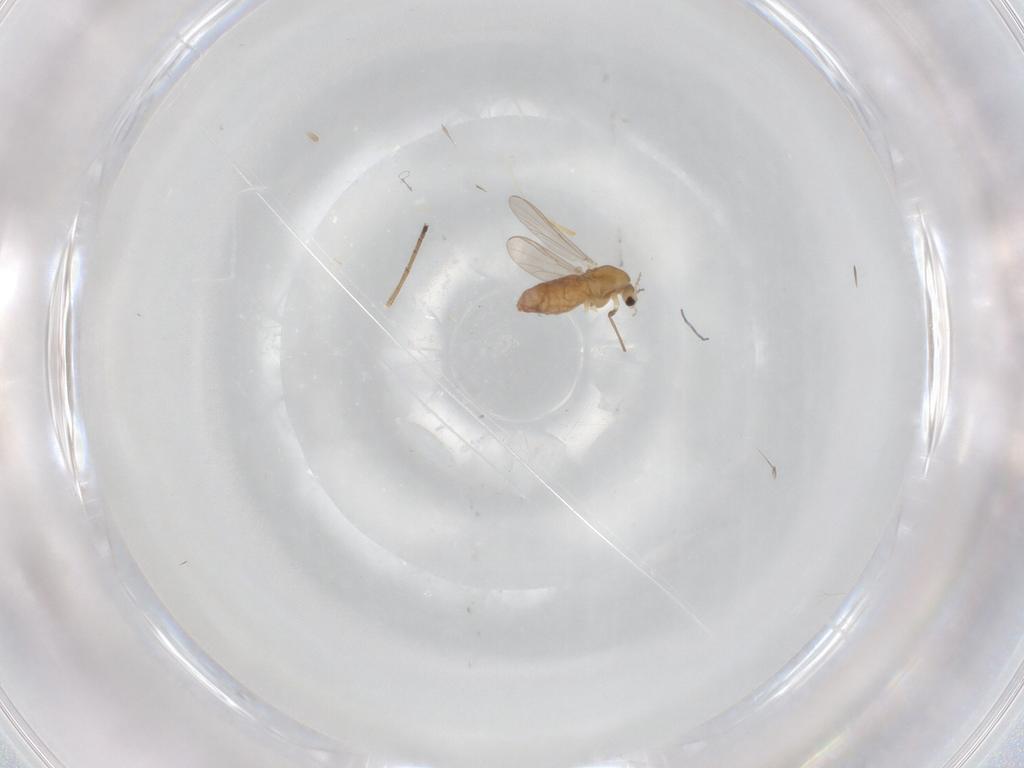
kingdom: Animalia
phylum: Arthropoda
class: Insecta
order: Diptera
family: Chironomidae
